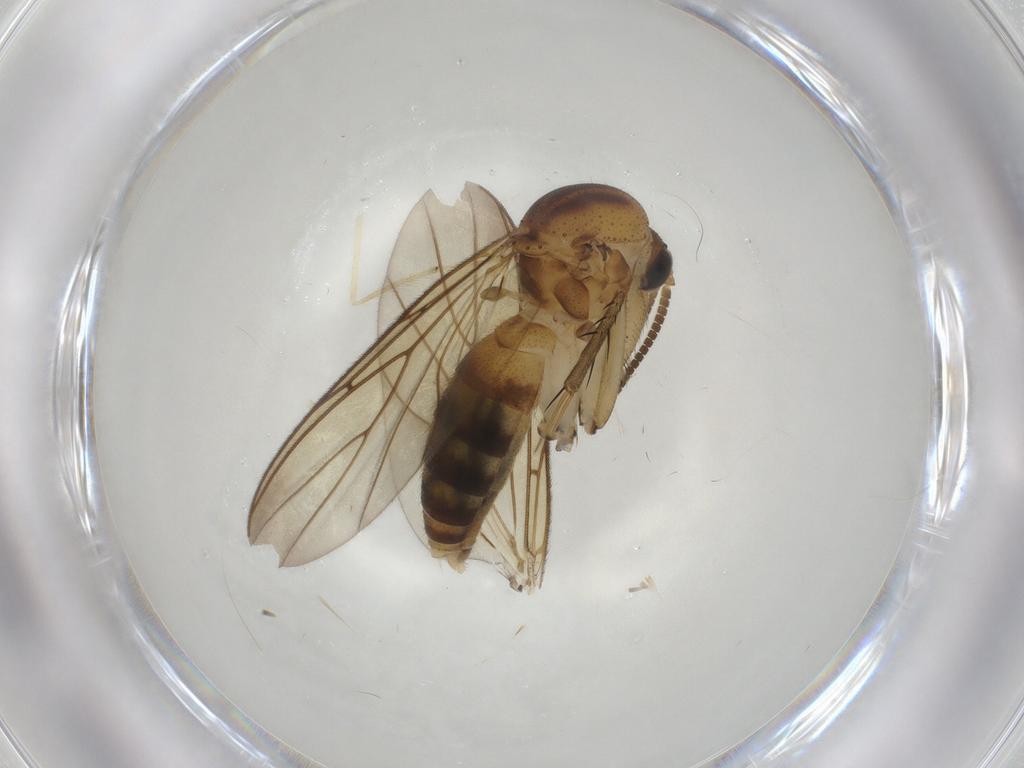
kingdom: Animalia
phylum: Arthropoda
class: Insecta
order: Diptera
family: Mycetophilidae
